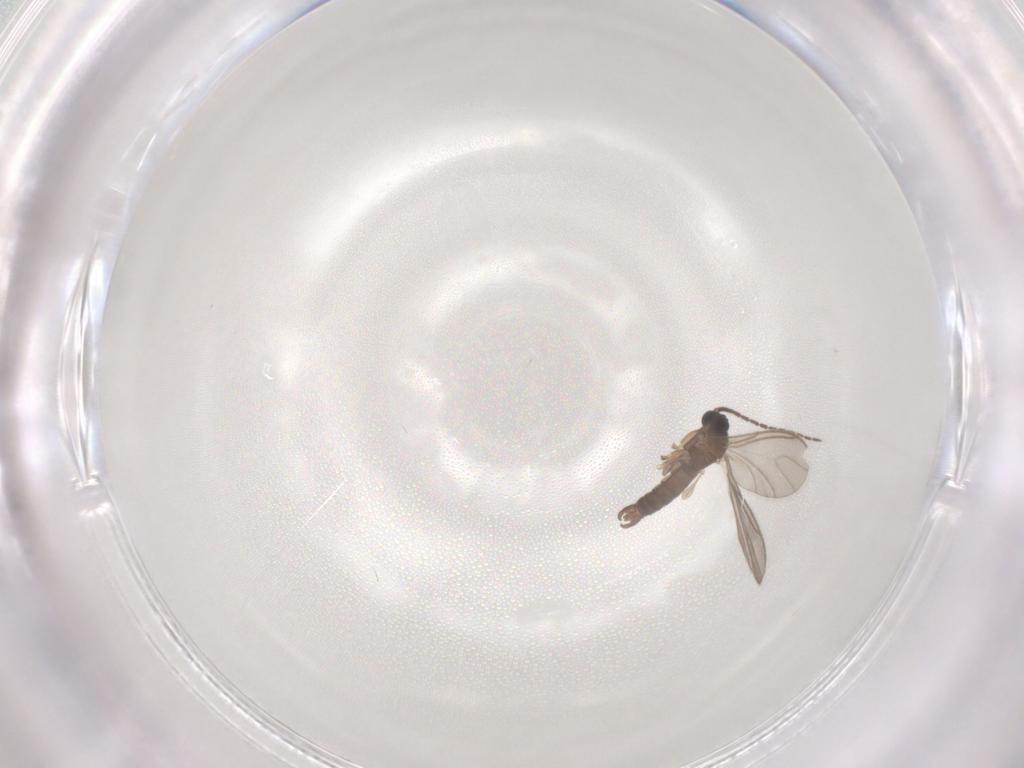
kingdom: Animalia
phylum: Arthropoda
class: Insecta
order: Diptera
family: Sciaridae
